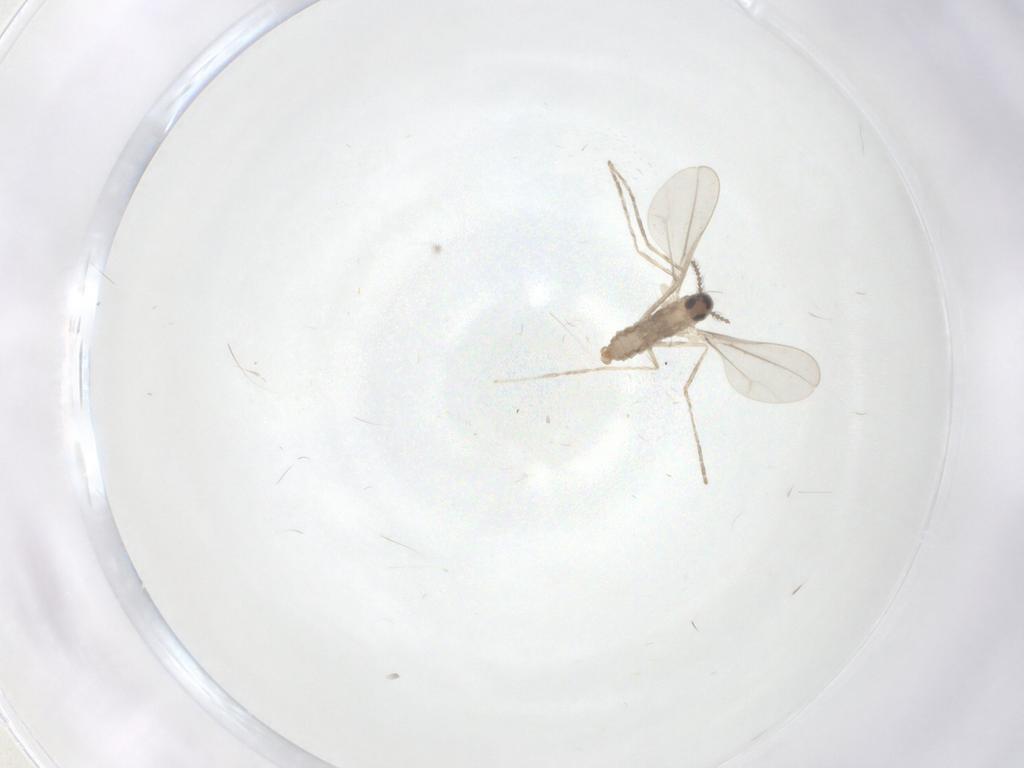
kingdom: Animalia
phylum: Arthropoda
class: Insecta
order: Diptera
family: Cecidomyiidae
